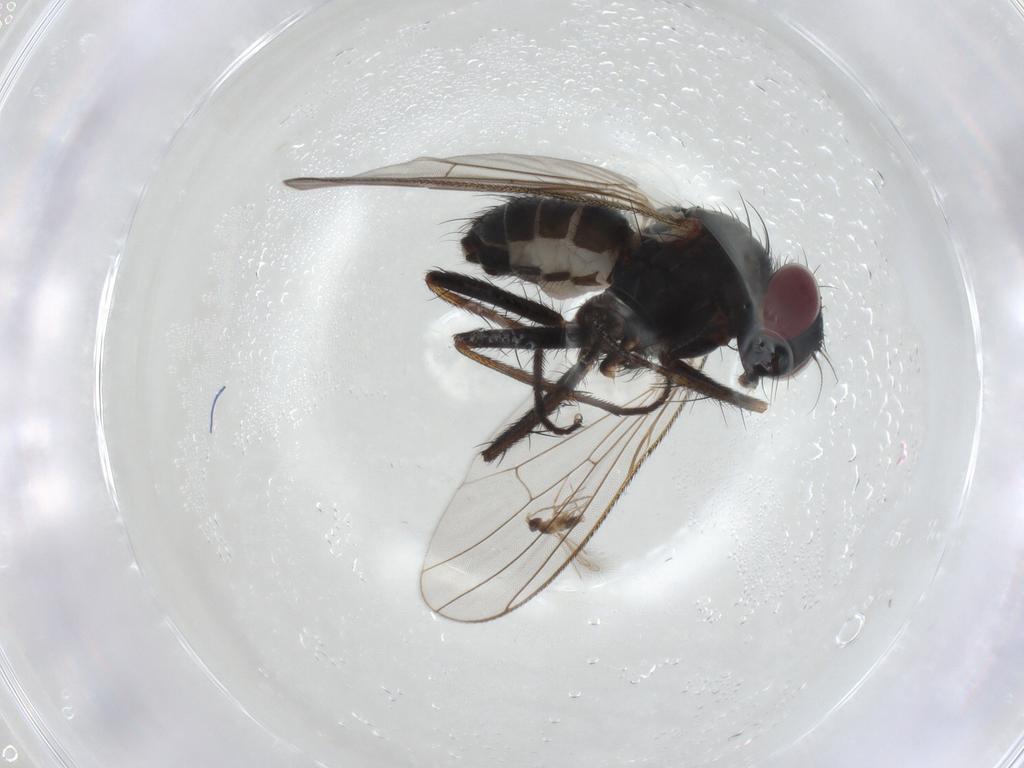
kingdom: Animalia
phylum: Arthropoda
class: Insecta
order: Hymenoptera
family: Braconidae
